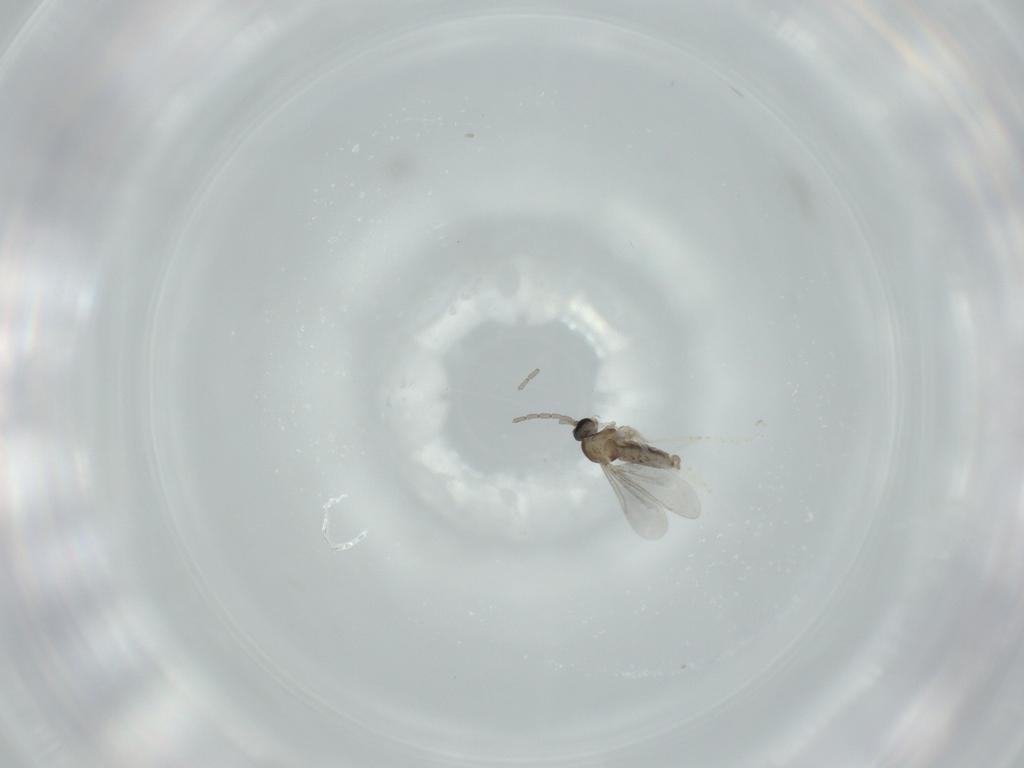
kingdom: Animalia
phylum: Arthropoda
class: Insecta
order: Diptera
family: Cecidomyiidae
